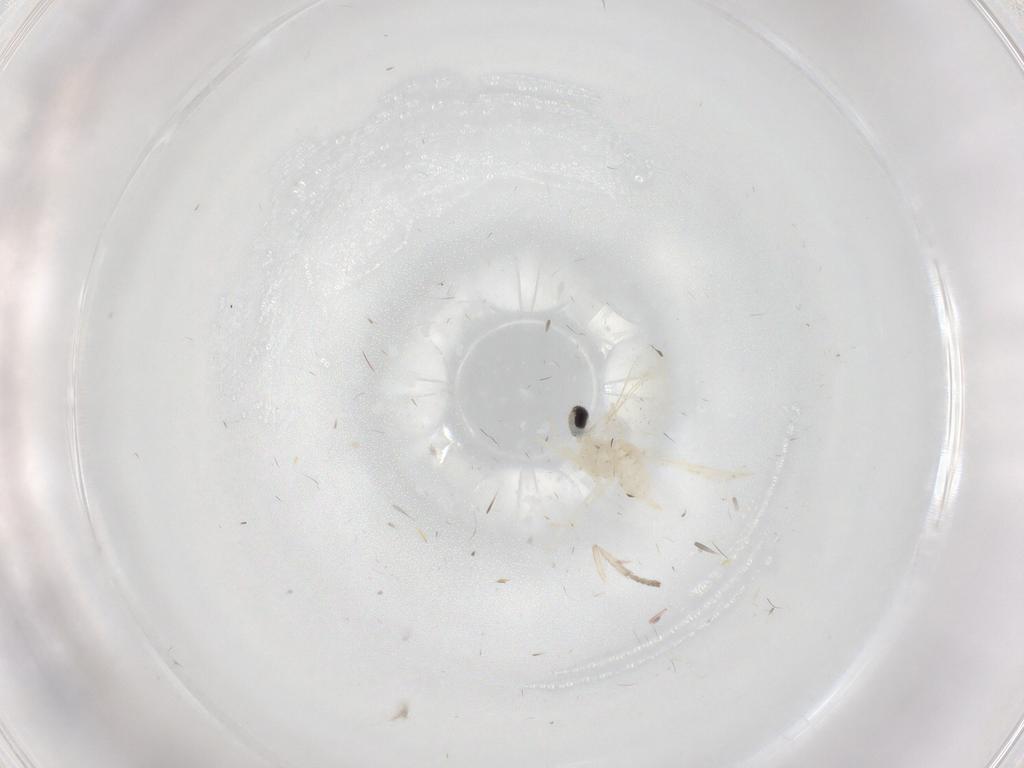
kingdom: Animalia
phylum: Arthropoda
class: Insecta
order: Diptera
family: Cecidomyiidae
